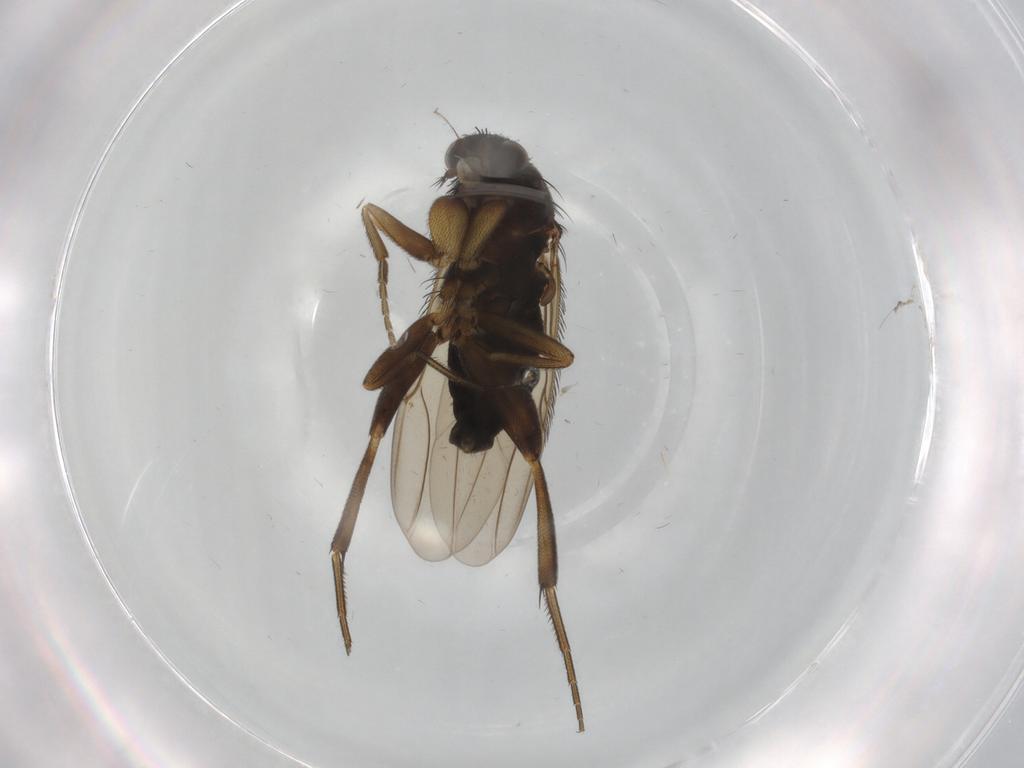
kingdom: Animalia
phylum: Arthropoda
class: Insecta
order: Diptera
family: Phoridae
